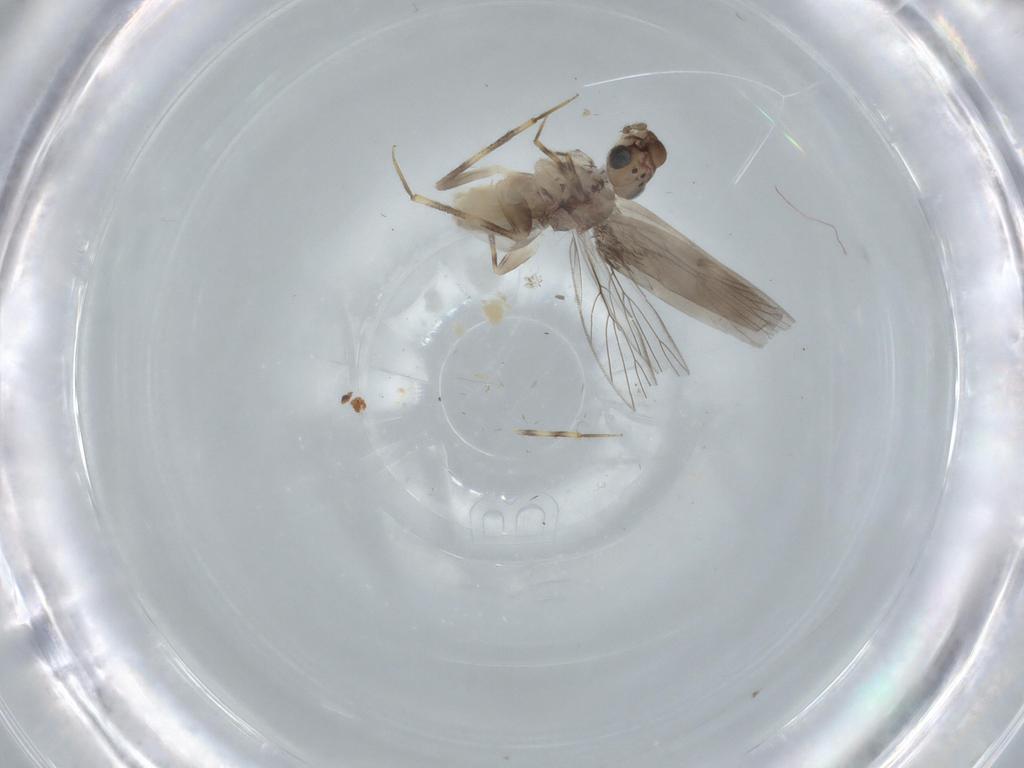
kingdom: Animalia
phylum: Arthropoda
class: Insecta
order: Psocodea
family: Lepidopsocidae
